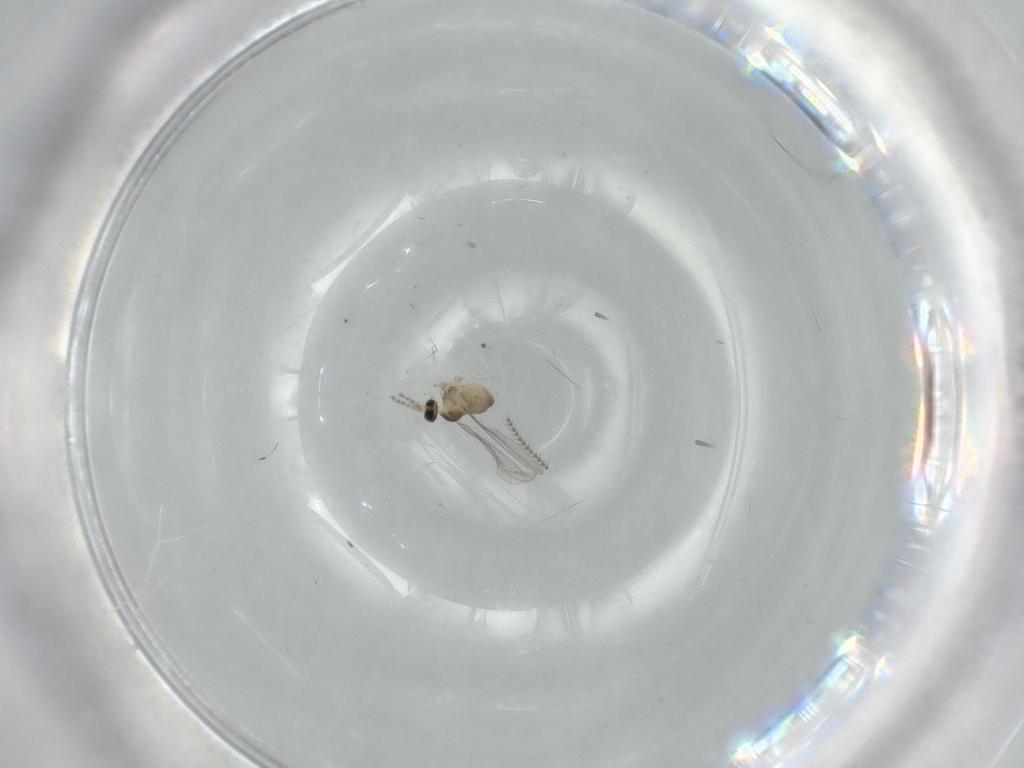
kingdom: Animalia
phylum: Arthropoda
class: Insecta
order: Diptera
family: Cecidomyiidae
